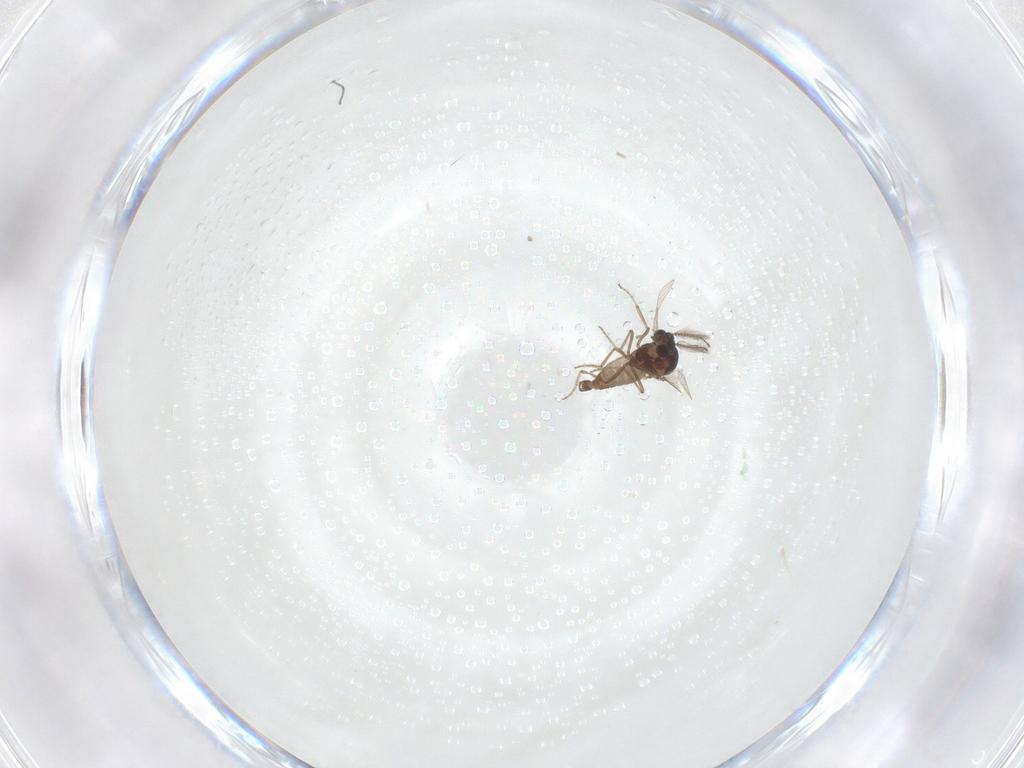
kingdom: Animalia
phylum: Arthropoda
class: Insecta
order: Diptera
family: Ceratopogonidae
